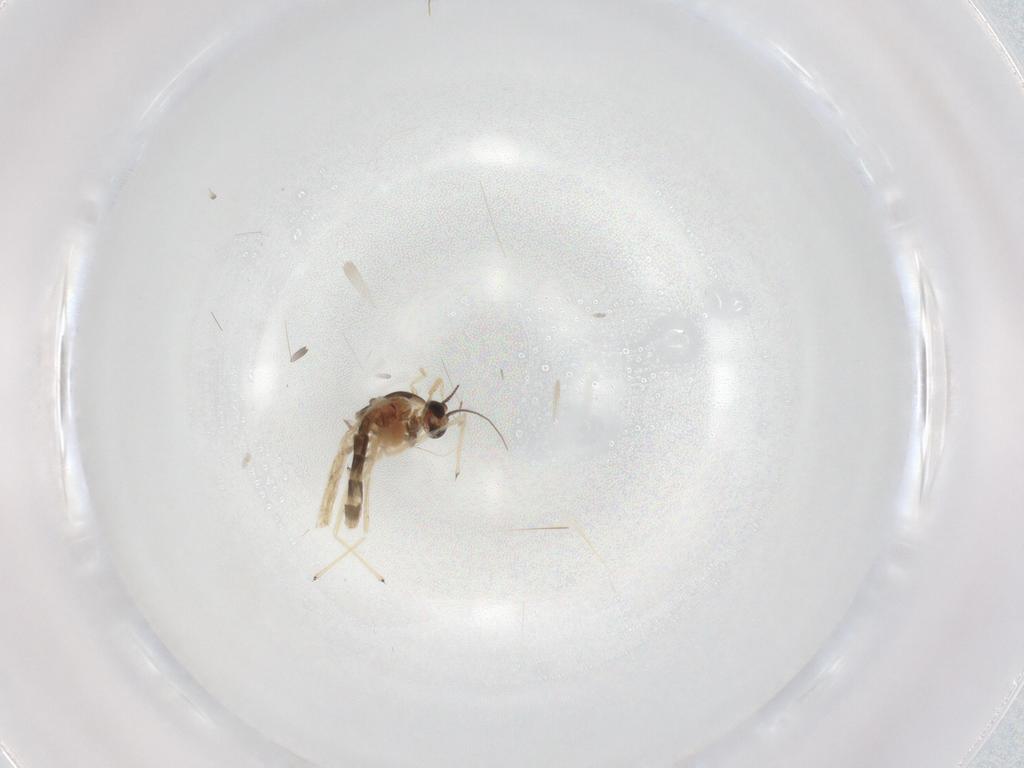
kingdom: Animalia
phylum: Arthropoda
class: Insecta
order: Diptera
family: Chironomidae
